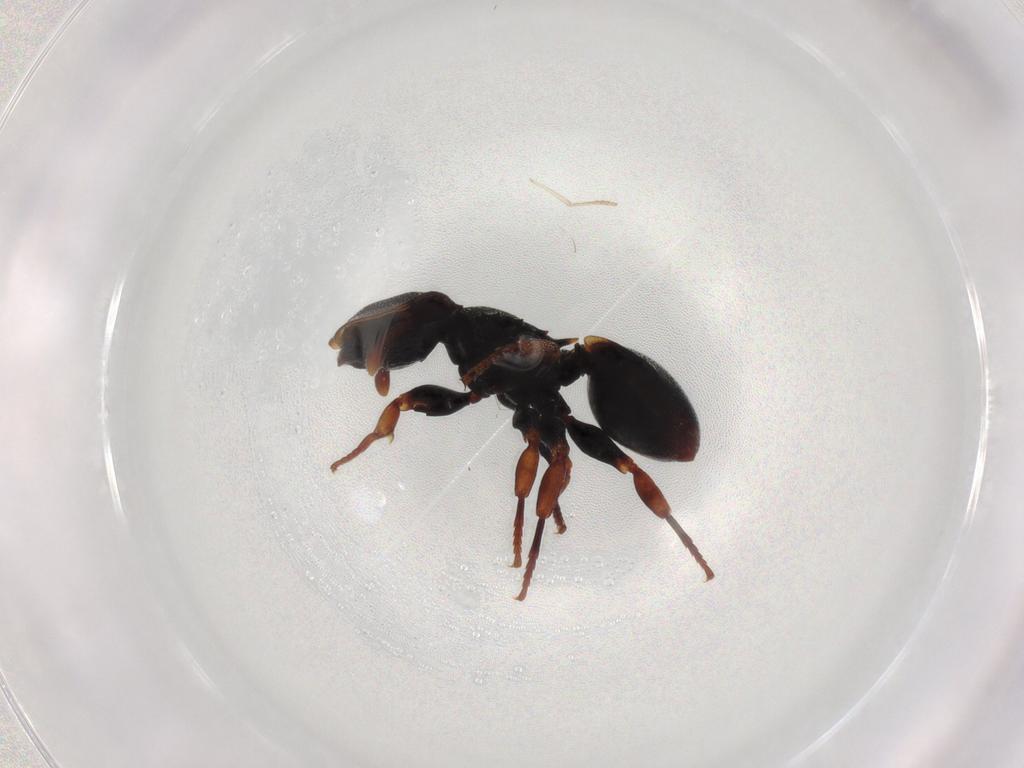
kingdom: Animalia
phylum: Arthropoda
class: Insecta
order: Hymenoptera
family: Formicidae
